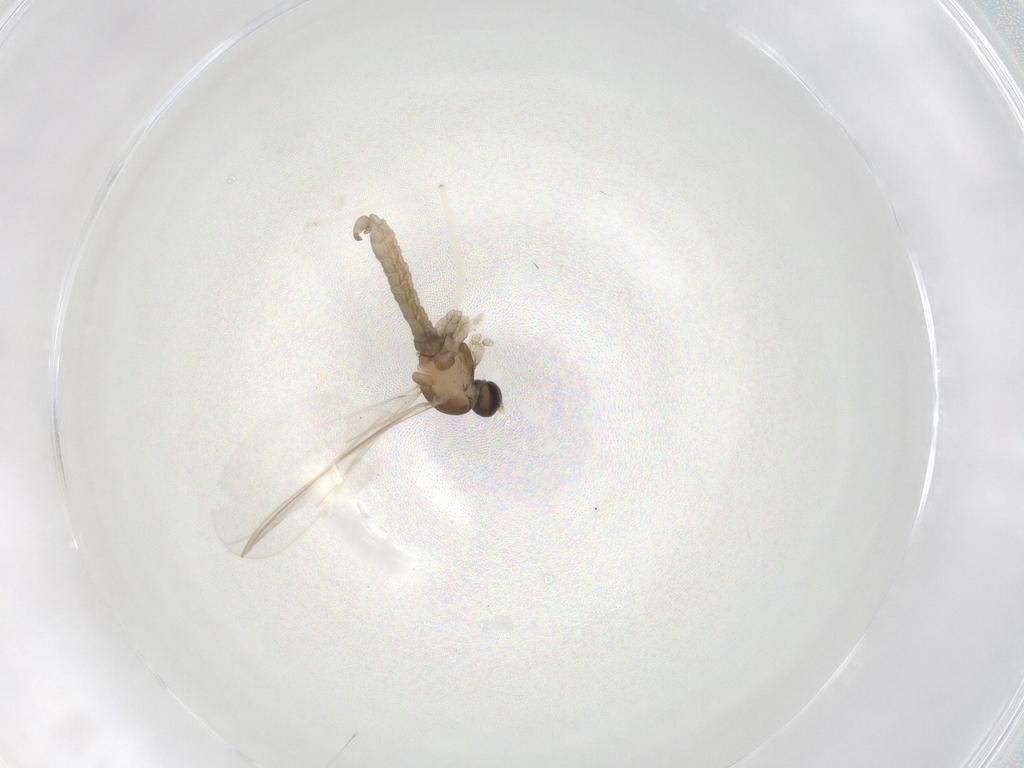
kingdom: Animalia
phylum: Arthropoda
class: Insecta
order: Diptera
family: Cecidomyiidae
